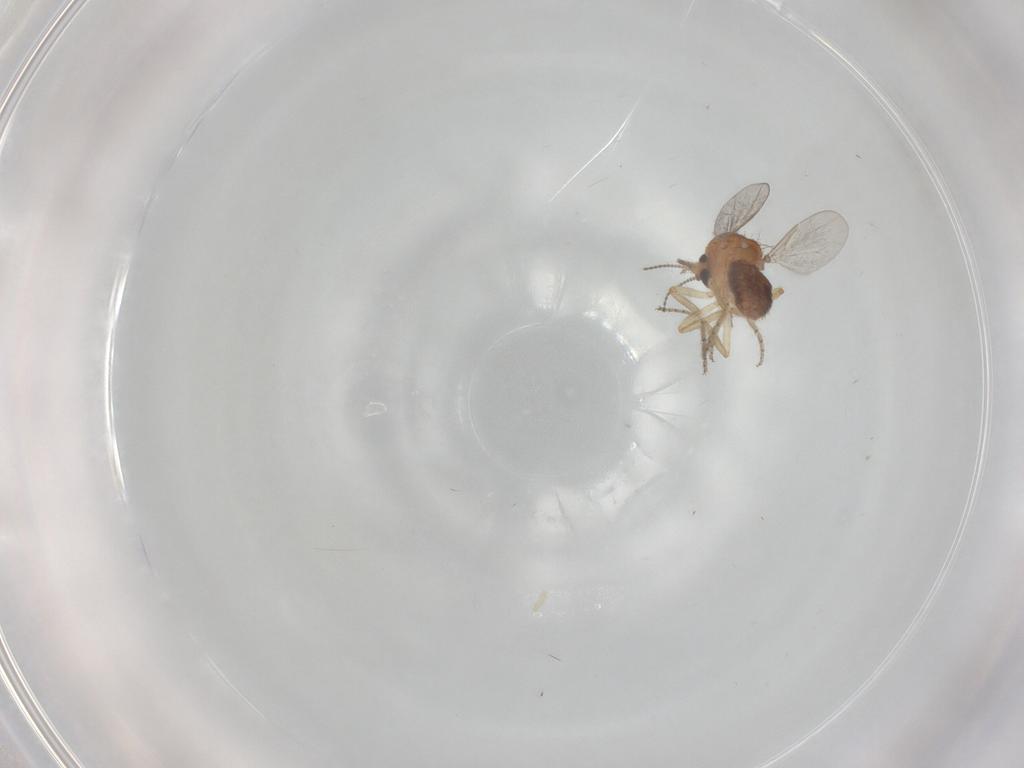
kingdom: Animalia
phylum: Arthropoda
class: Insecta
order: Diptera
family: Ceratopogonidae
